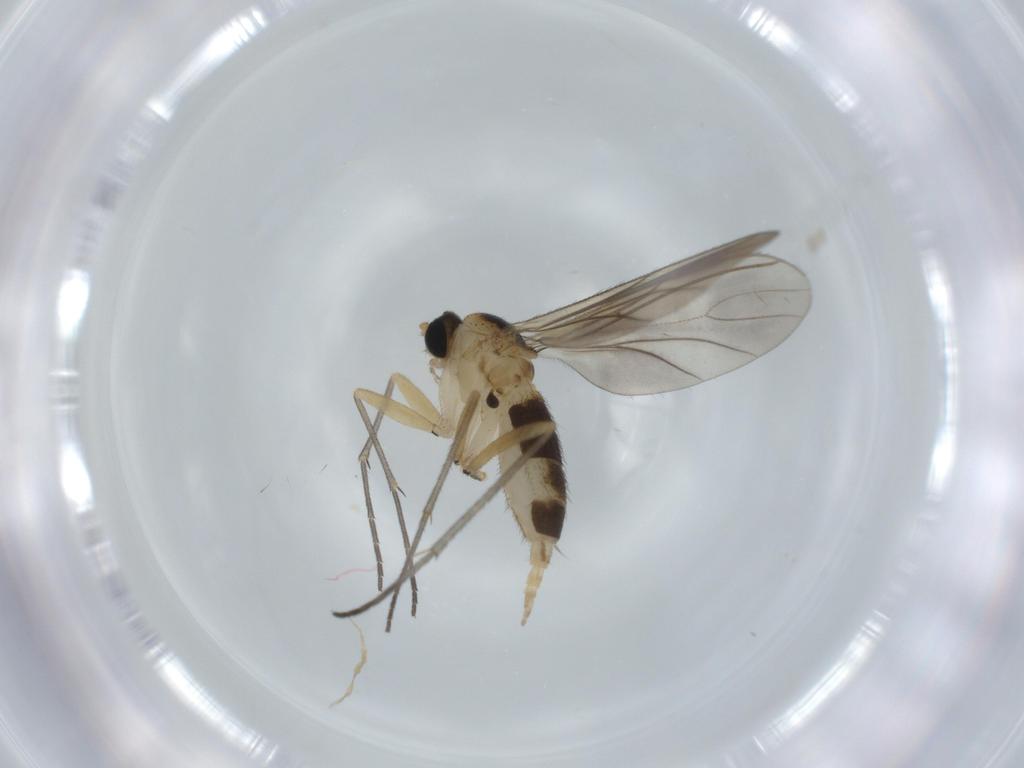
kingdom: Animalia
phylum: Arthropoda
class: Insecta
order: Diptera
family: Sciaridae
